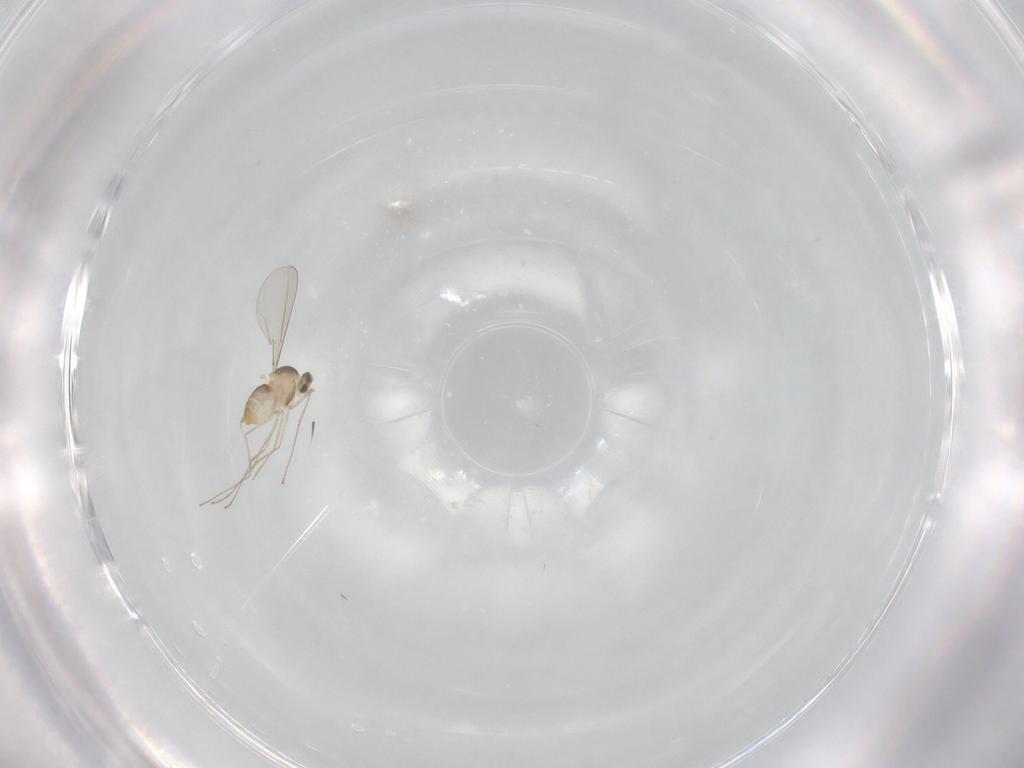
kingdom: Animalia
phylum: Arthropoda
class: Insecta
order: Diptera
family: Cecidomyiidae
